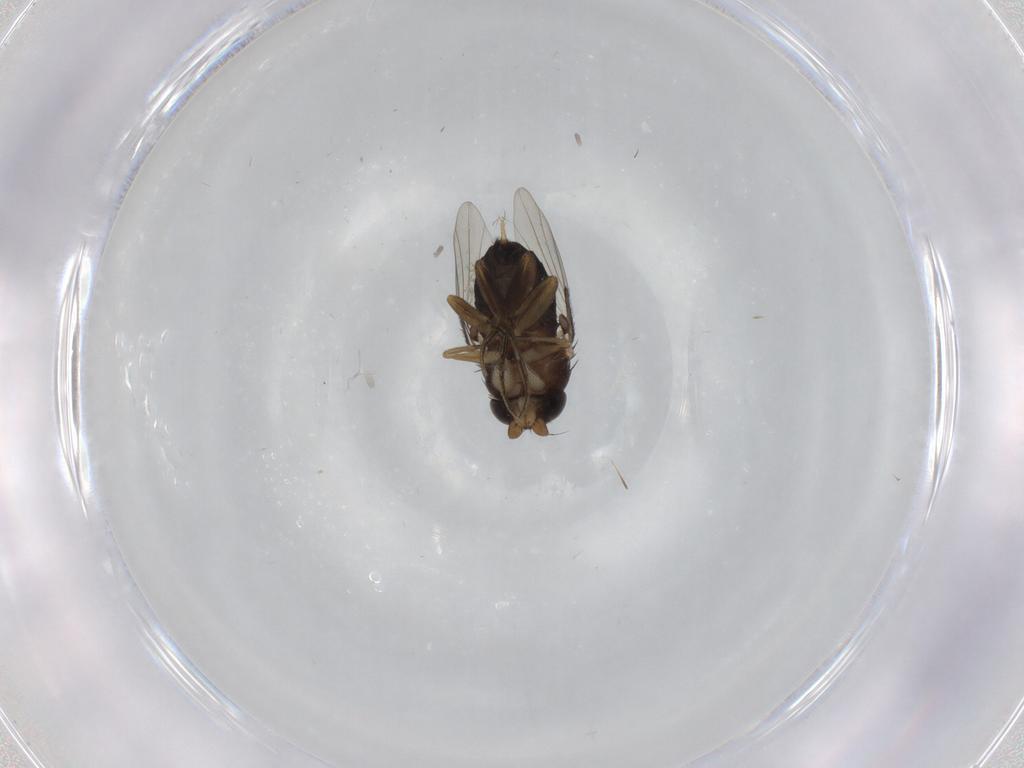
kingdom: Animalia
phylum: Arthropoda
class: Insecta
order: Diptera
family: Phoridae
